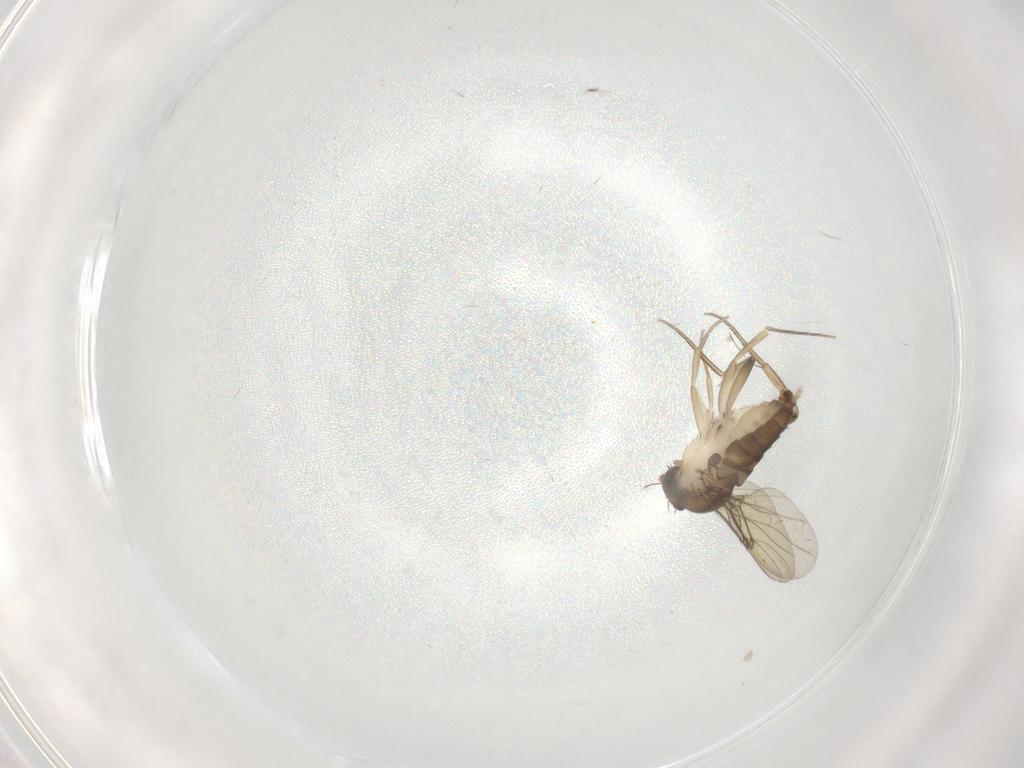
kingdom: Animalia
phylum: Arthropoda
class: Insecta
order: Diptera
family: Phoridae
